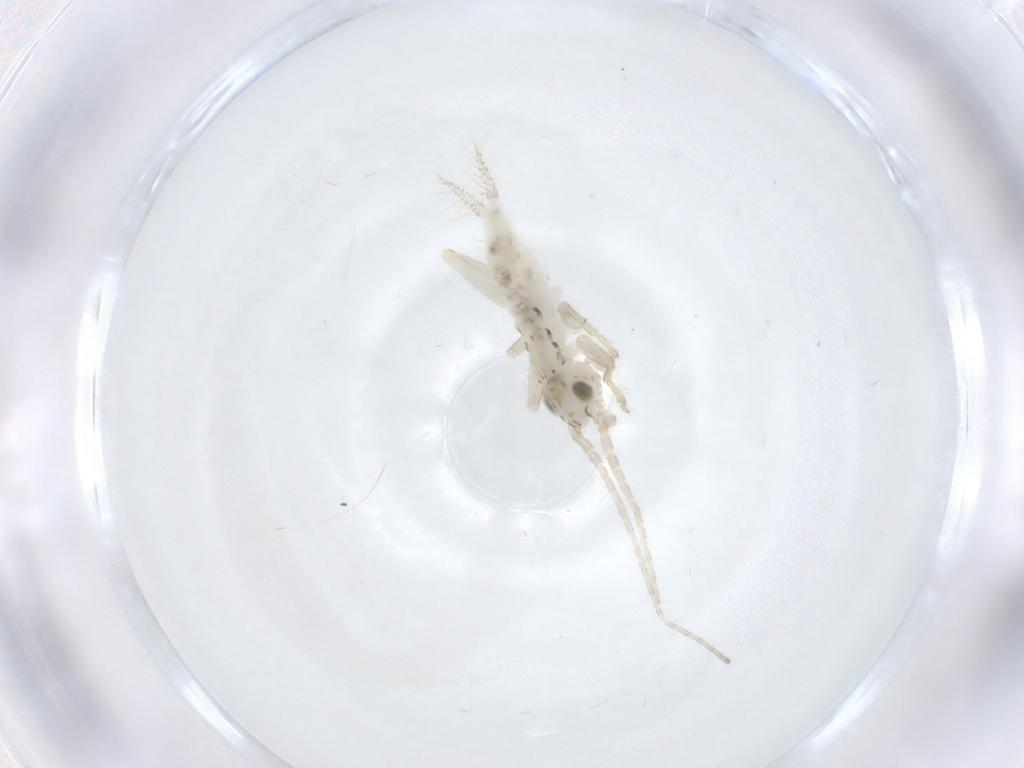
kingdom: Animalia
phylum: Arthropoda
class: Insecta
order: Orthoptera
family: Trigonidiidae
